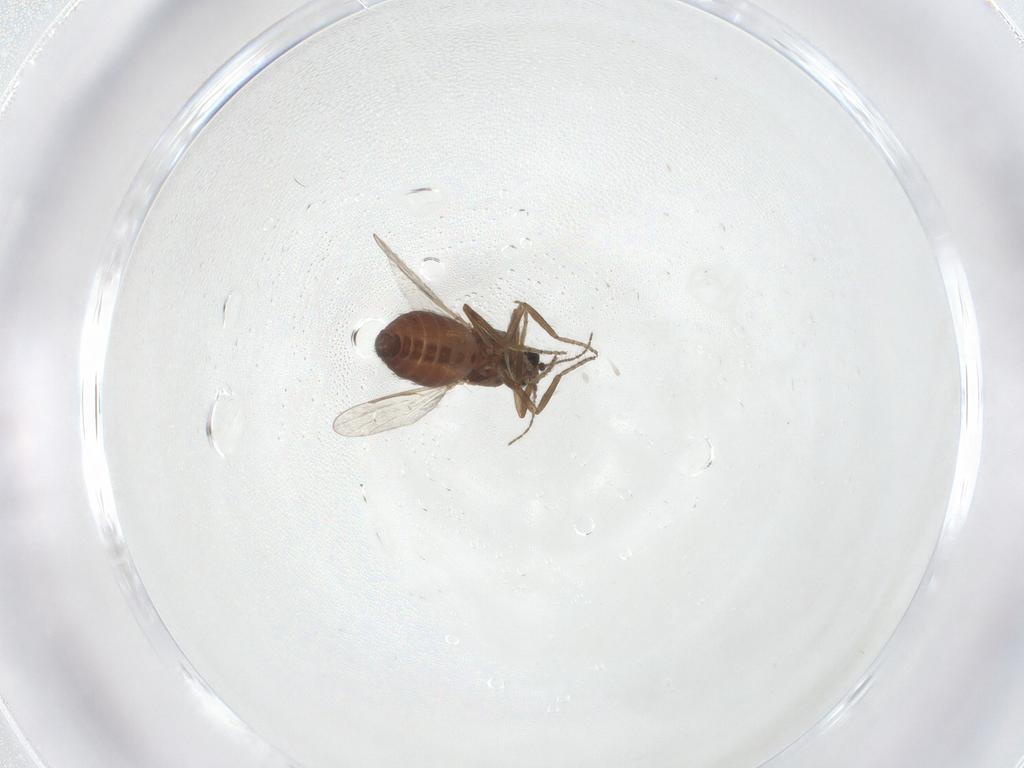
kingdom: Animalia
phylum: Arthropoda
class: Insecta
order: Diptera
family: Ceratopogonidae
